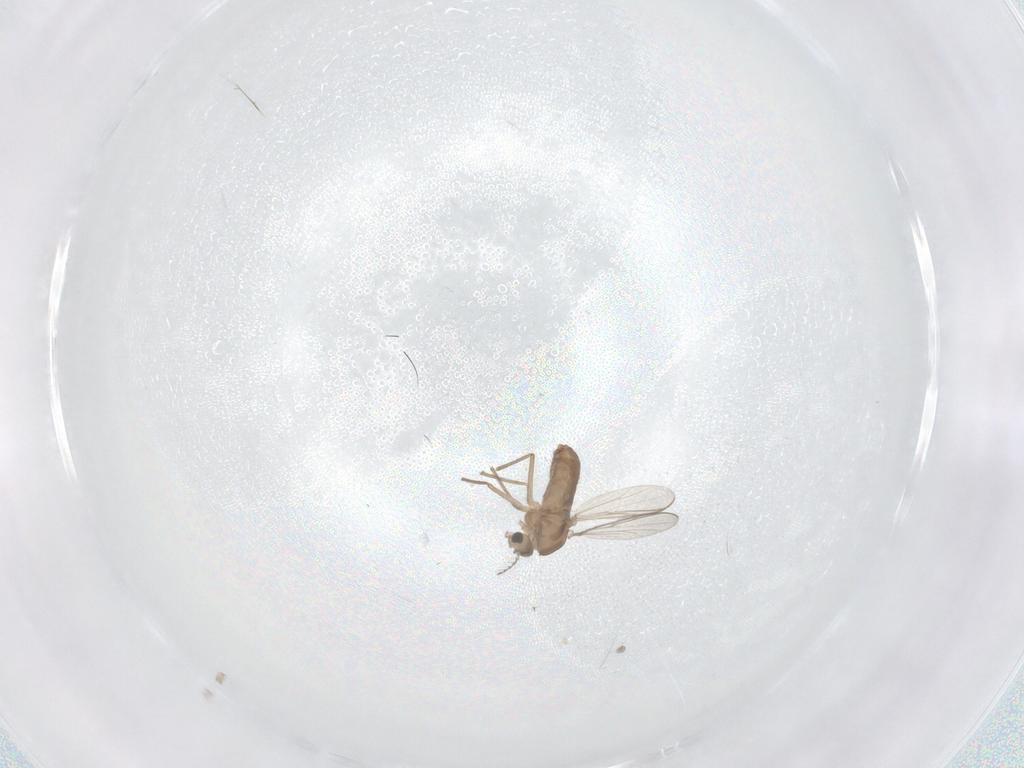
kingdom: Animalia
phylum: Arthropoda
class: Insecta
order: Diptera
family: Chironomidae
